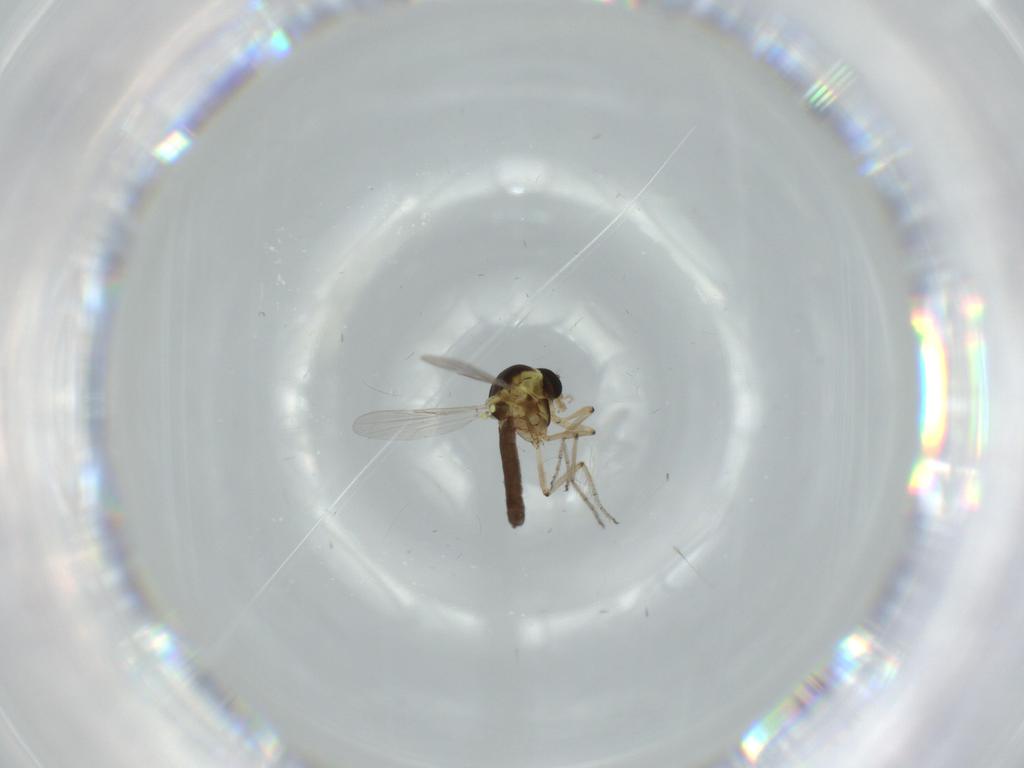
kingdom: Animalia
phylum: Arthropoda
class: Insecta
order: Diptera
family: Ceratopogonidae
